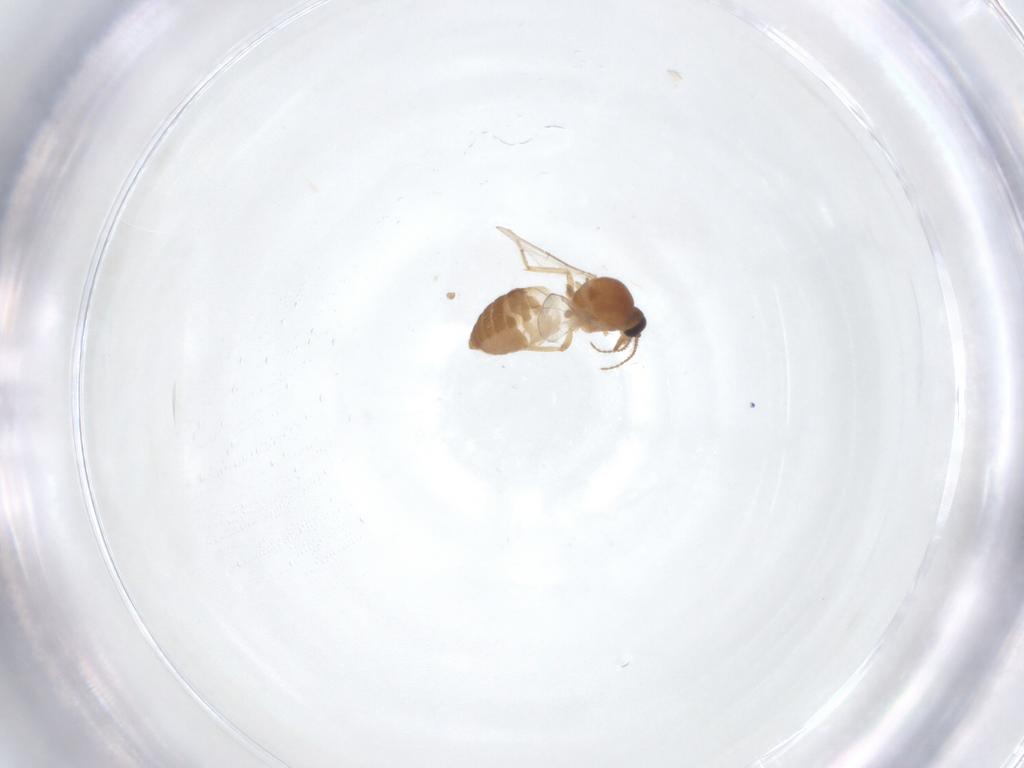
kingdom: Animalia
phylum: Arthropoda
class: Insecta
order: Diptera
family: Ceratopogonidae
